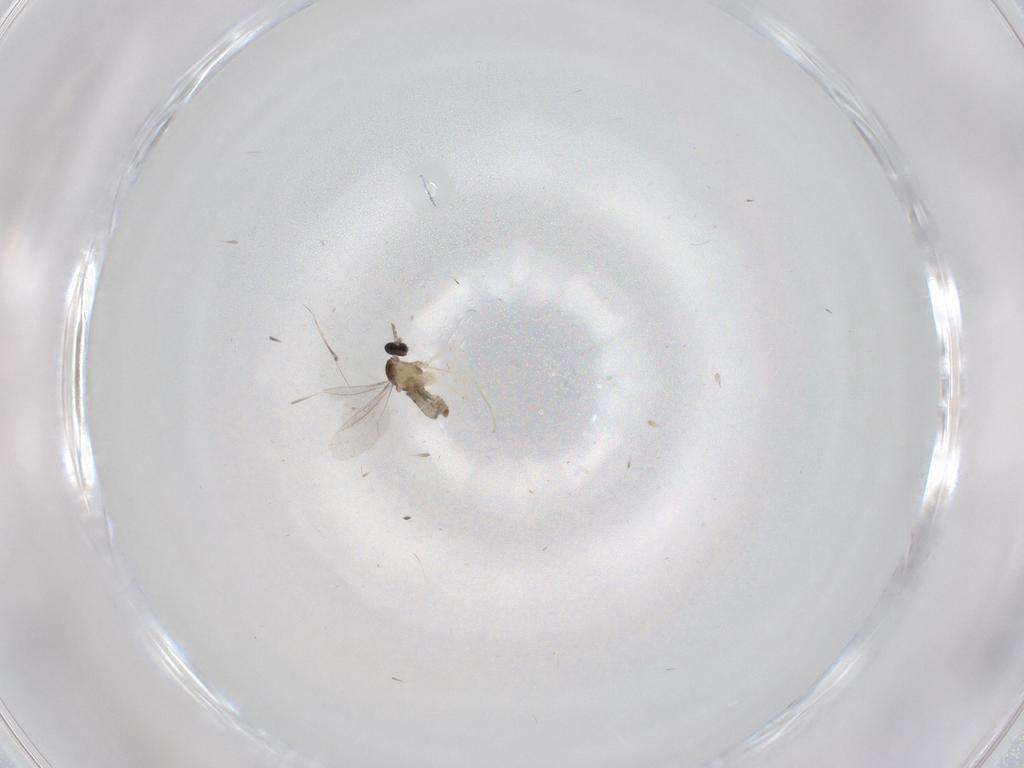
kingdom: Animalia
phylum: Arthropoda
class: Insecta
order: Diptera
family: Cecidomyiidae
